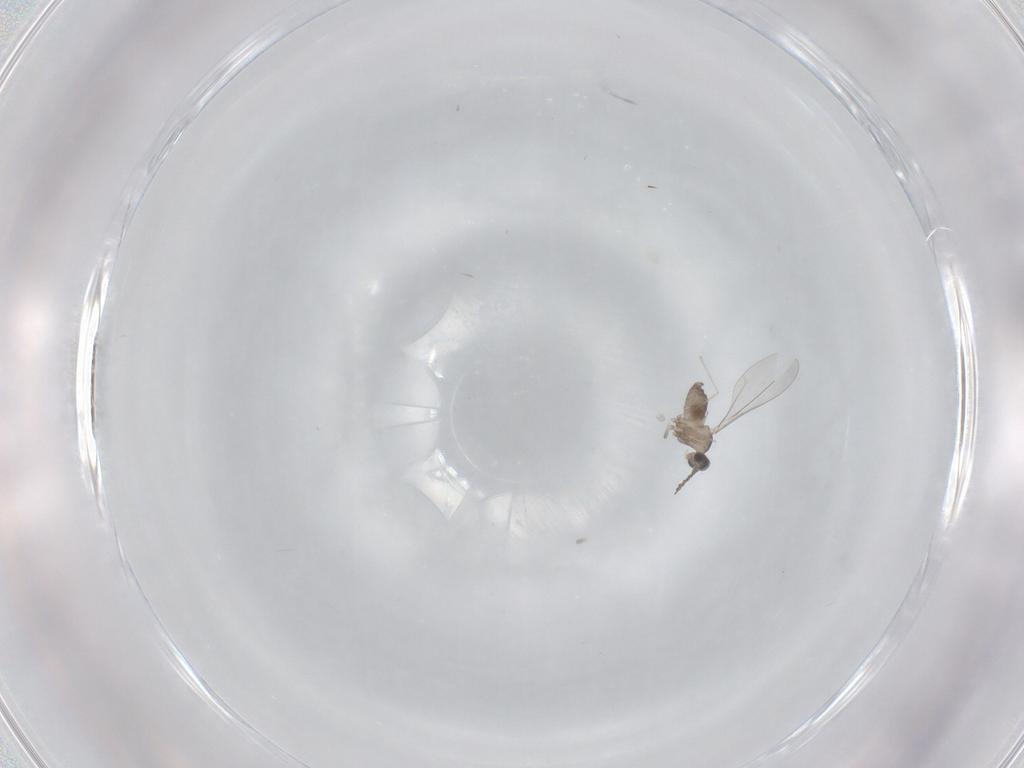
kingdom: Animalia
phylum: Arthropoda
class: Insecta
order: Diptera
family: Cecidomyiidae
